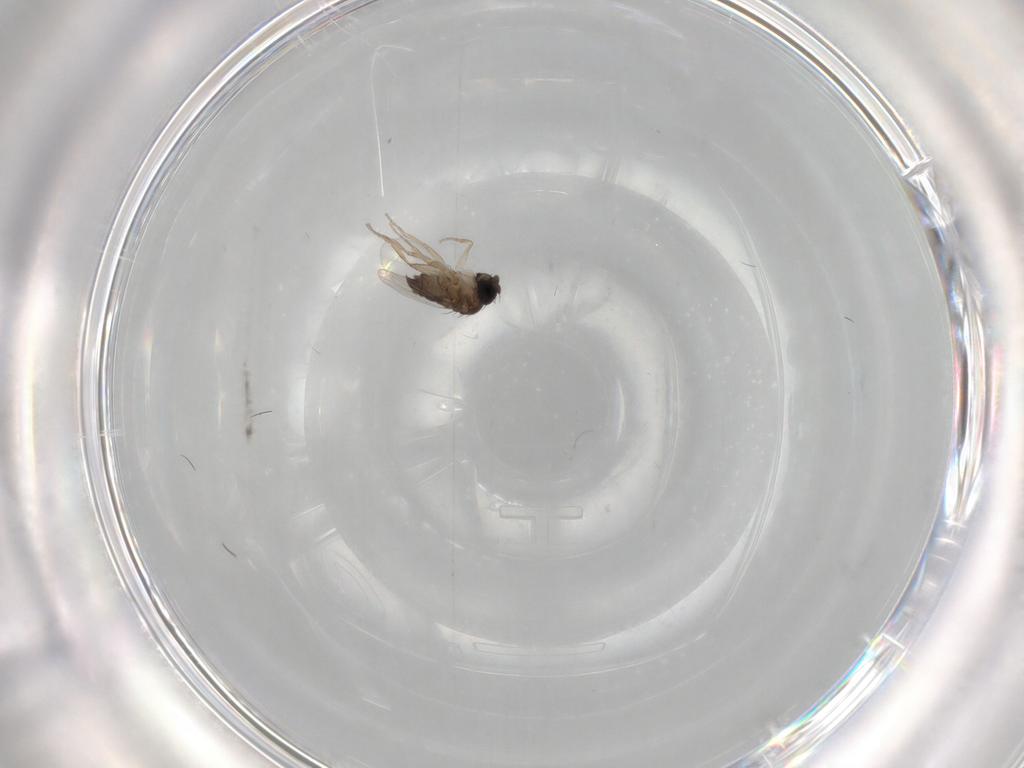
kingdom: Animalia
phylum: Arthropoda
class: Insecta
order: Diptera
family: Phoridae
